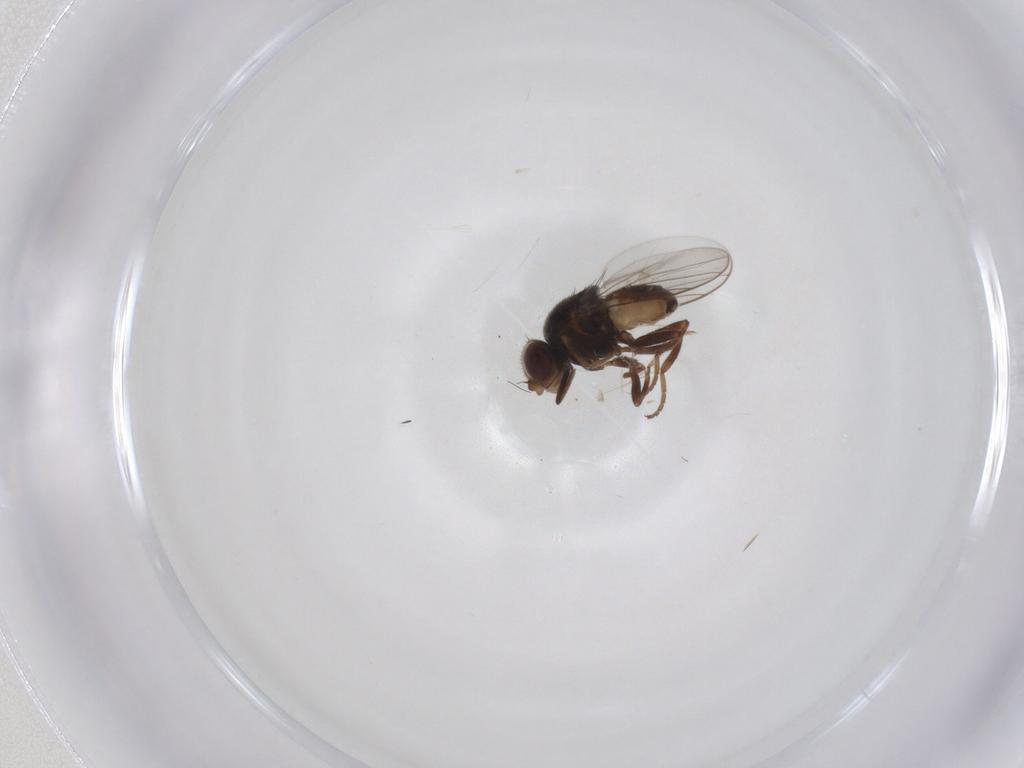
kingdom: Animalia
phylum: Arthropoda
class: Insecta
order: Diptera
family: Chloropidae
